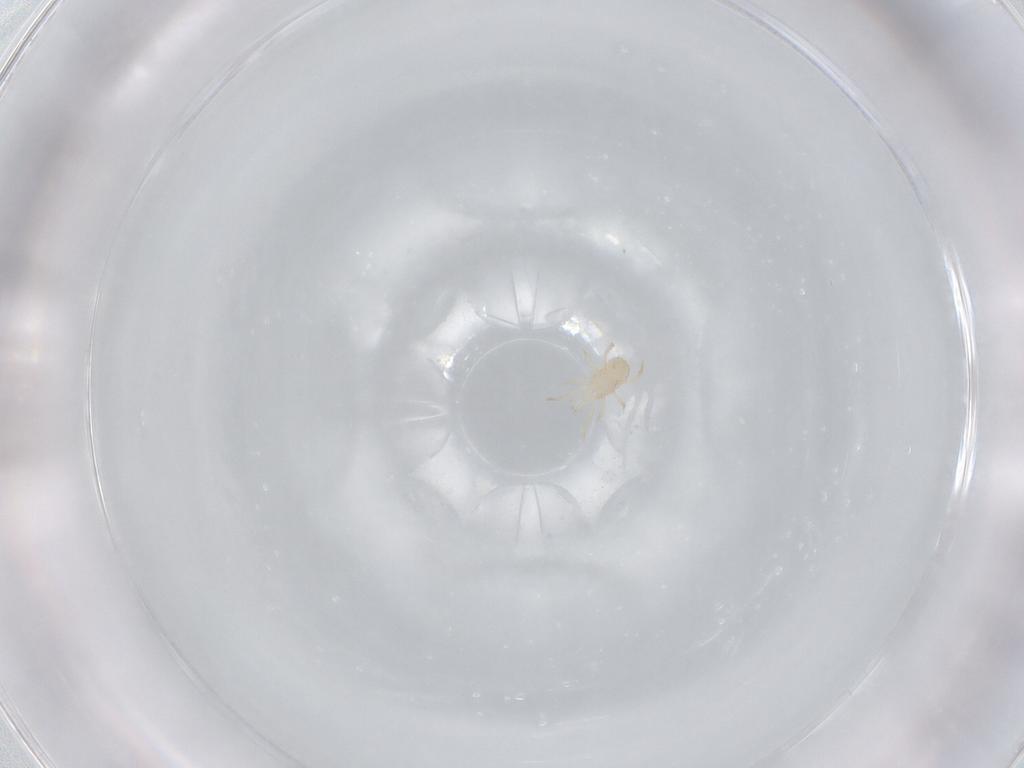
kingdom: Animalia
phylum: Arthropoda
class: Arachnida
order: Mesostigmata
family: Blattisociidae
